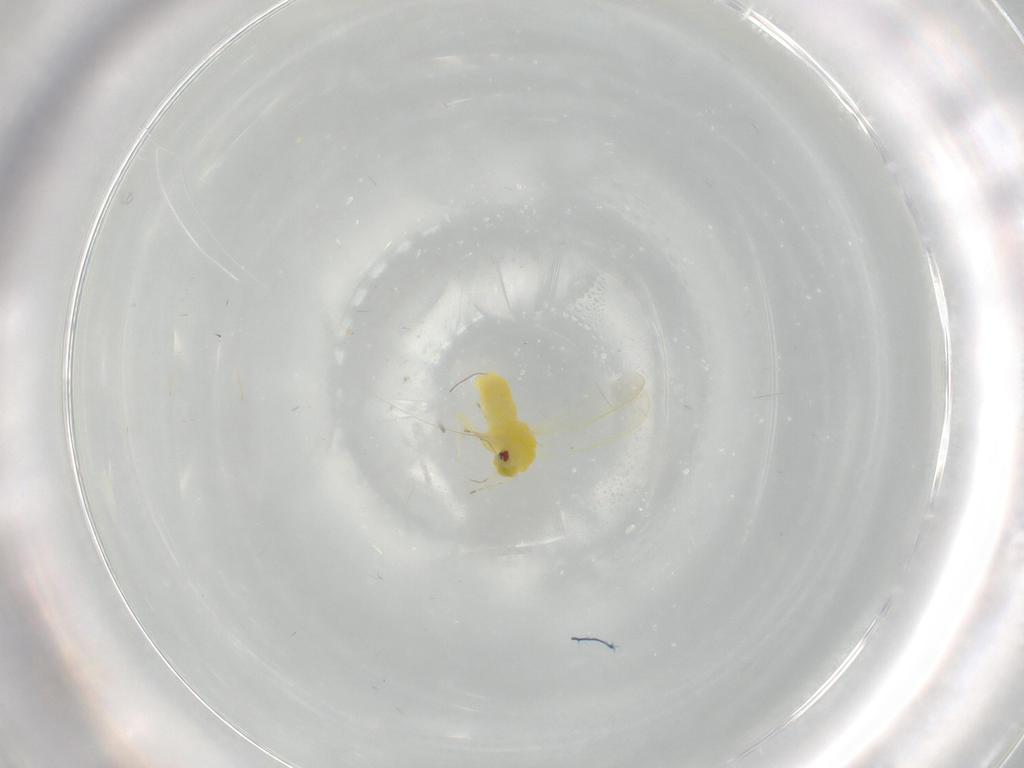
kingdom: Animalia
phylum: Arthropoda
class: Insecta
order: Hemiptera
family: Aleyrodidae
